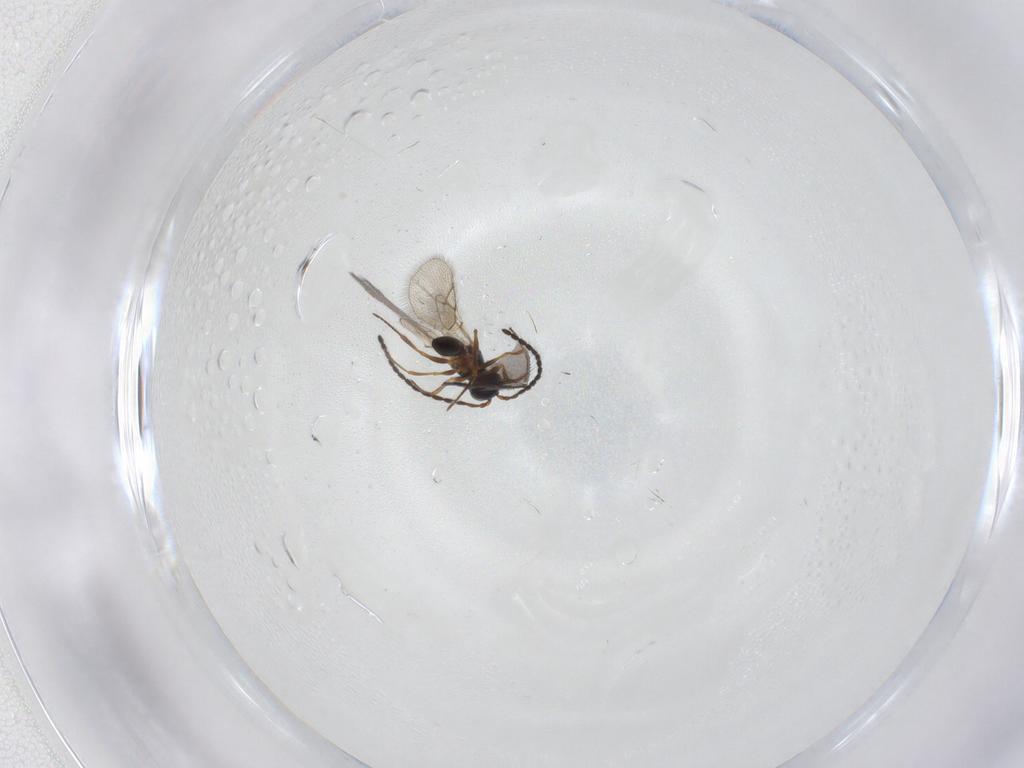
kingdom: Animalia
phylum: Arthropoda
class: Insecta
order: Hymenoptera
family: Figitidae
